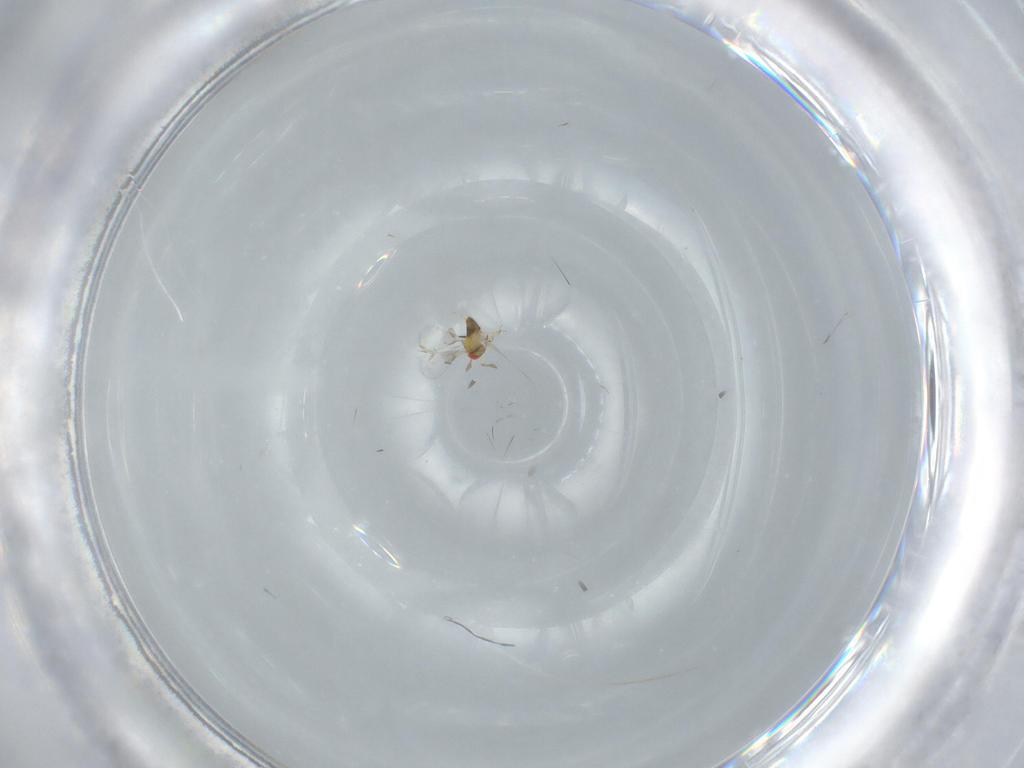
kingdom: Animalia
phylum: Arthropoda
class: Insecta
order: Hymenoptera
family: Trichogrammatidae
